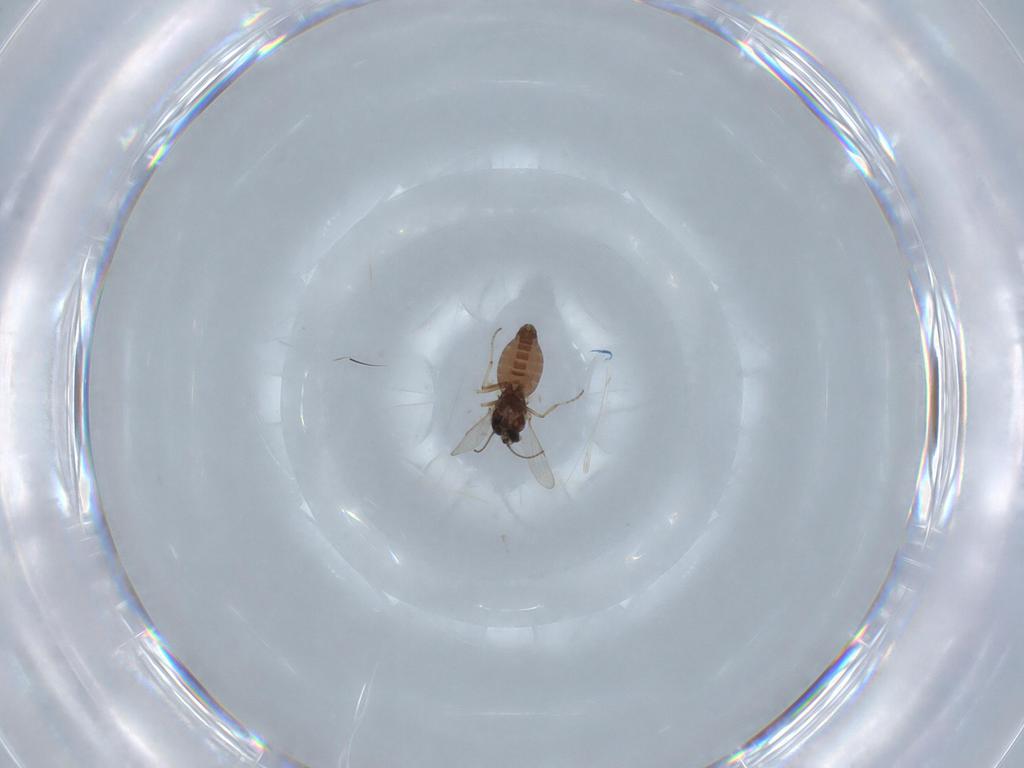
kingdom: Animalia
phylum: Arthropoda
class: Insecta
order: Diptera
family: Ceratopogonidae
